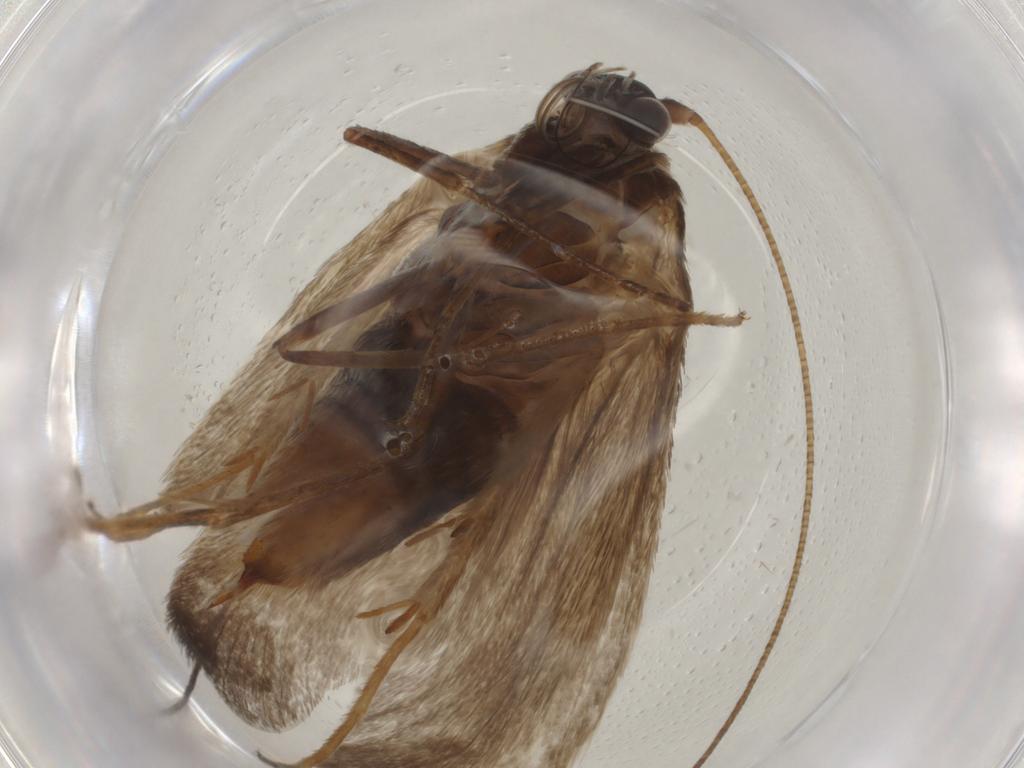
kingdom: Animalia
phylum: Arthropoda
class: Insecta
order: Lepidoptera
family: Adelidae
